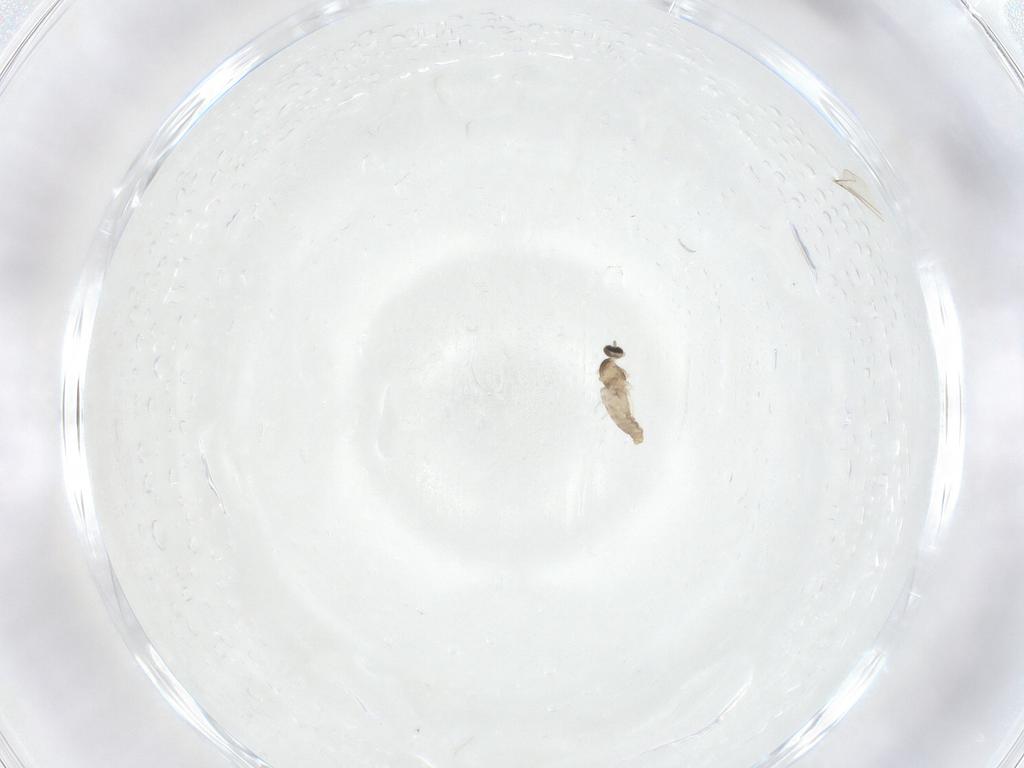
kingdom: Animalia
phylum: Arthropoda
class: Insecta
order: Diptera
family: Cecidomyiidae
